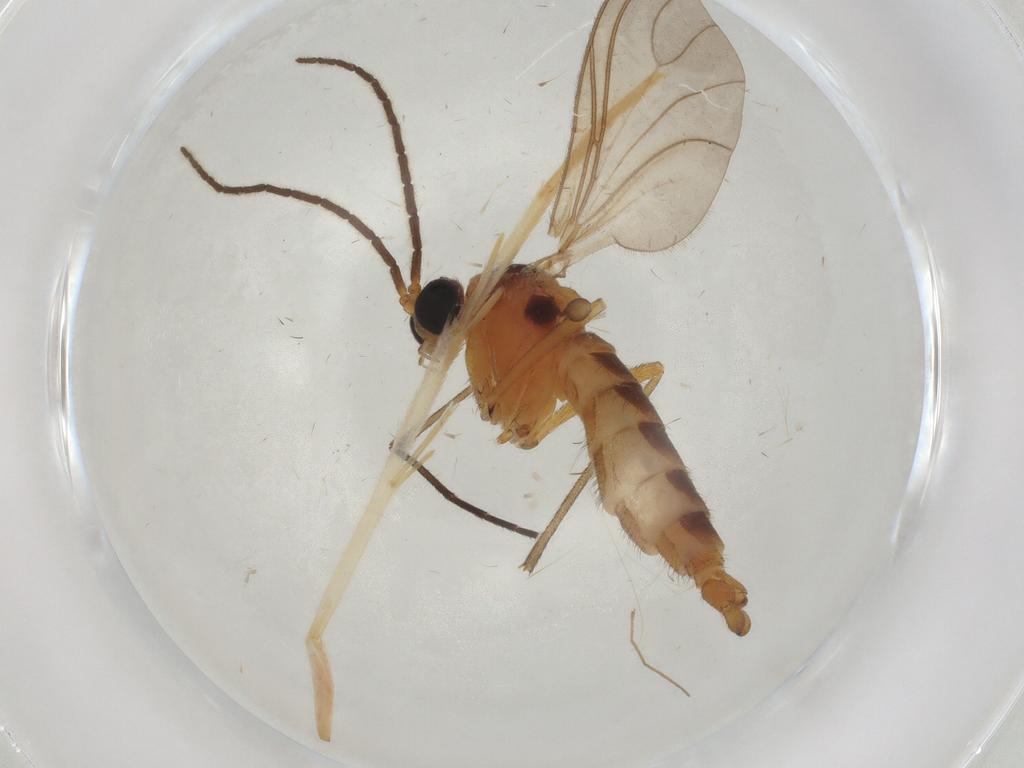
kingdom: Animalia
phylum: Arthropoda
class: Insecta
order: Diptera
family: Sciaridae
